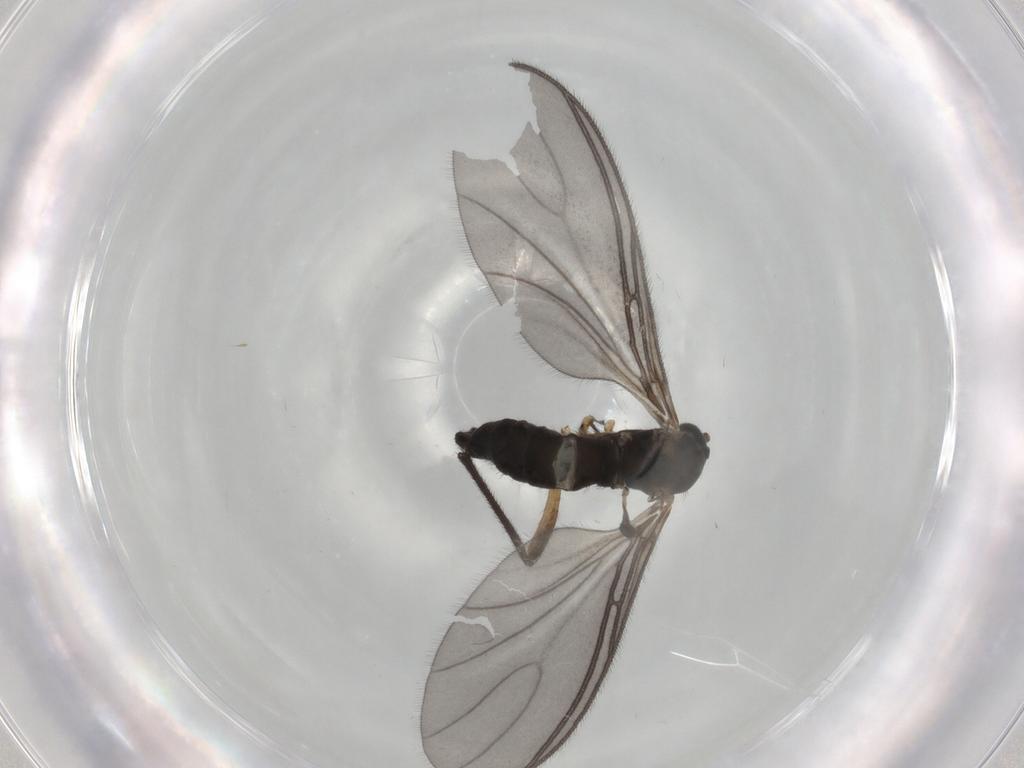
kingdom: Animalia
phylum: Arthropoda
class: Insecta
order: Diptera
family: Sciaridae
